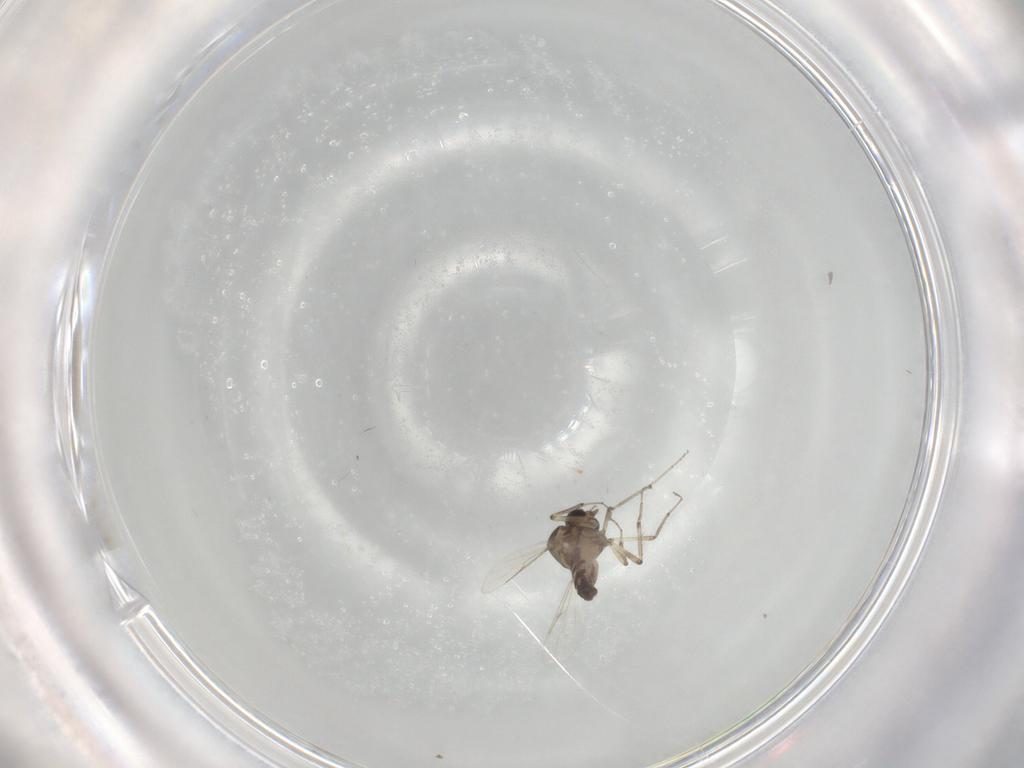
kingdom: Animalia
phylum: Arthropoda
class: Insecta
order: Diptera
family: Ceratopogonidae
